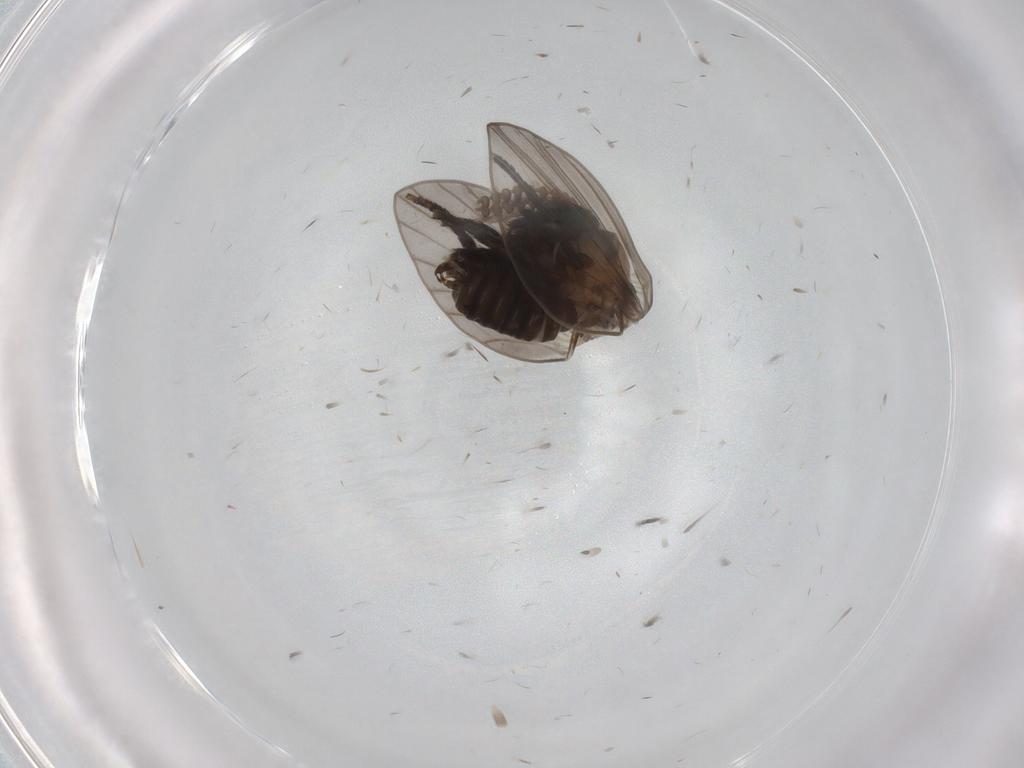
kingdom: Animalia
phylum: Arthropoda
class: Insecta
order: Diptera
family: Psychodidae
